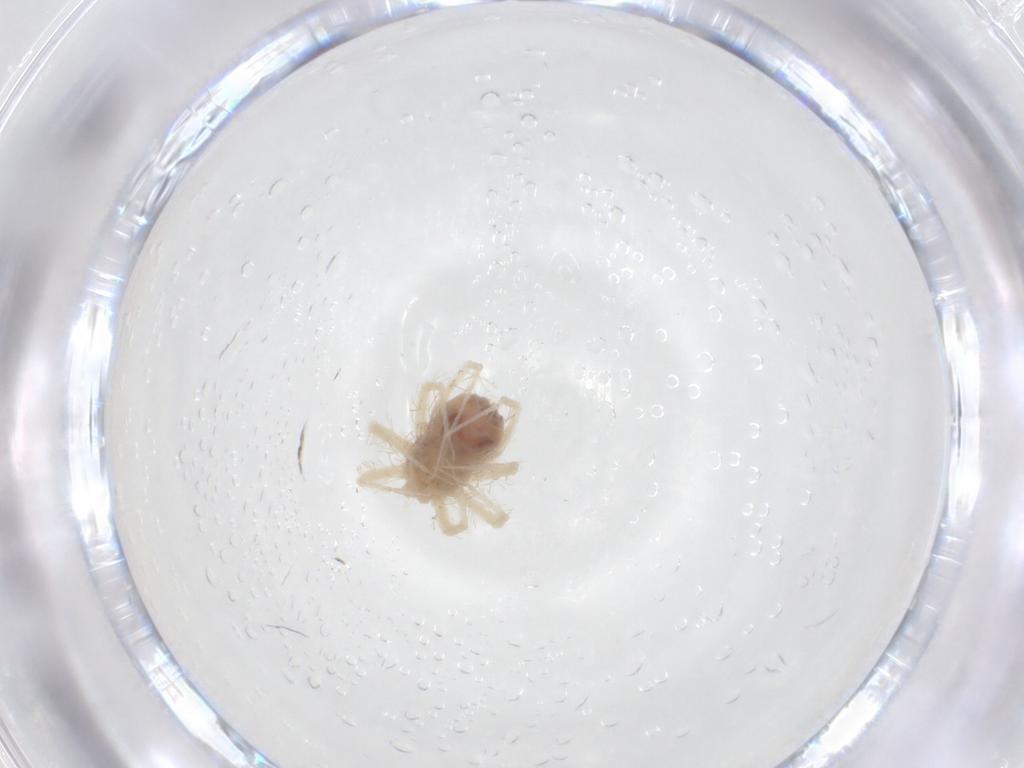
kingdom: Animalia
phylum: Arthropoda
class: Arachnida
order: Trombidiformes
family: Anystidae
